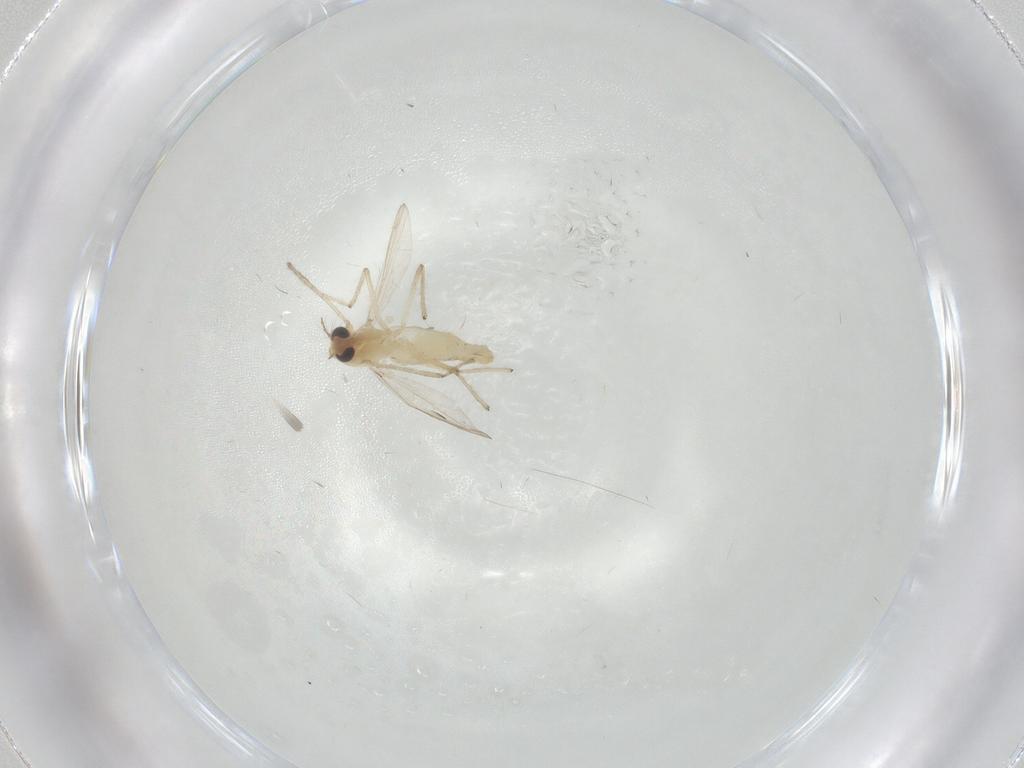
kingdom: Animalia
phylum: Arthropoda
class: Insecta
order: Diptera
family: Chironomidae
